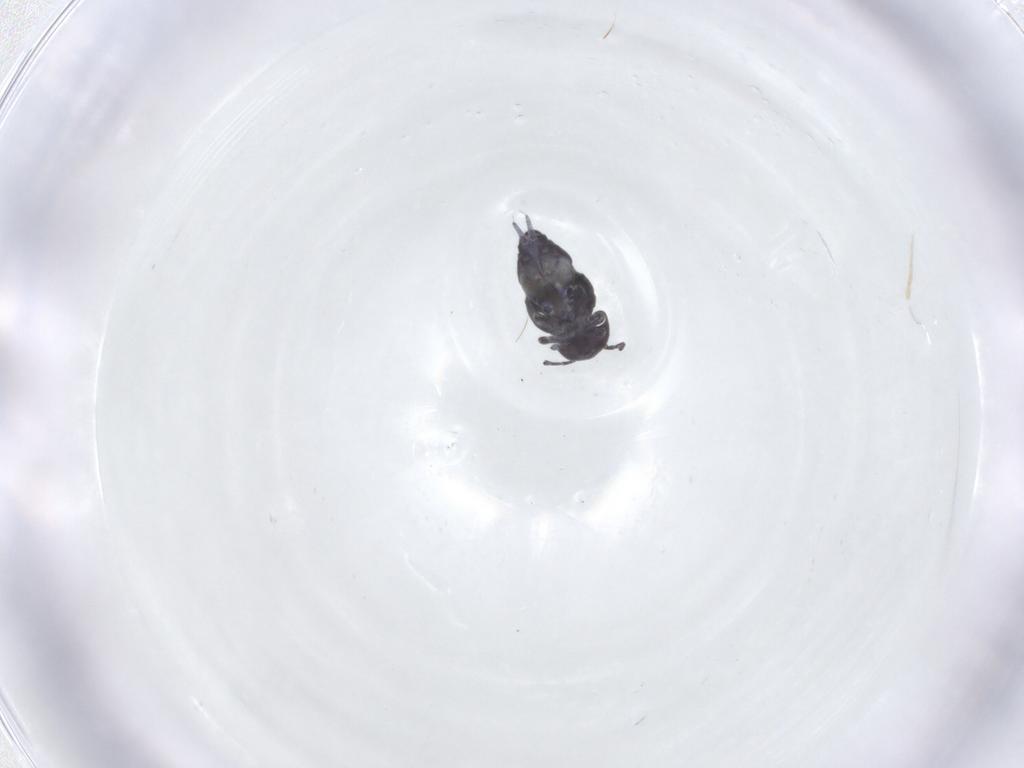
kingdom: Animalia
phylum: Arthropoda
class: Collembola
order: Symphypleona
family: Bourletiellidae
